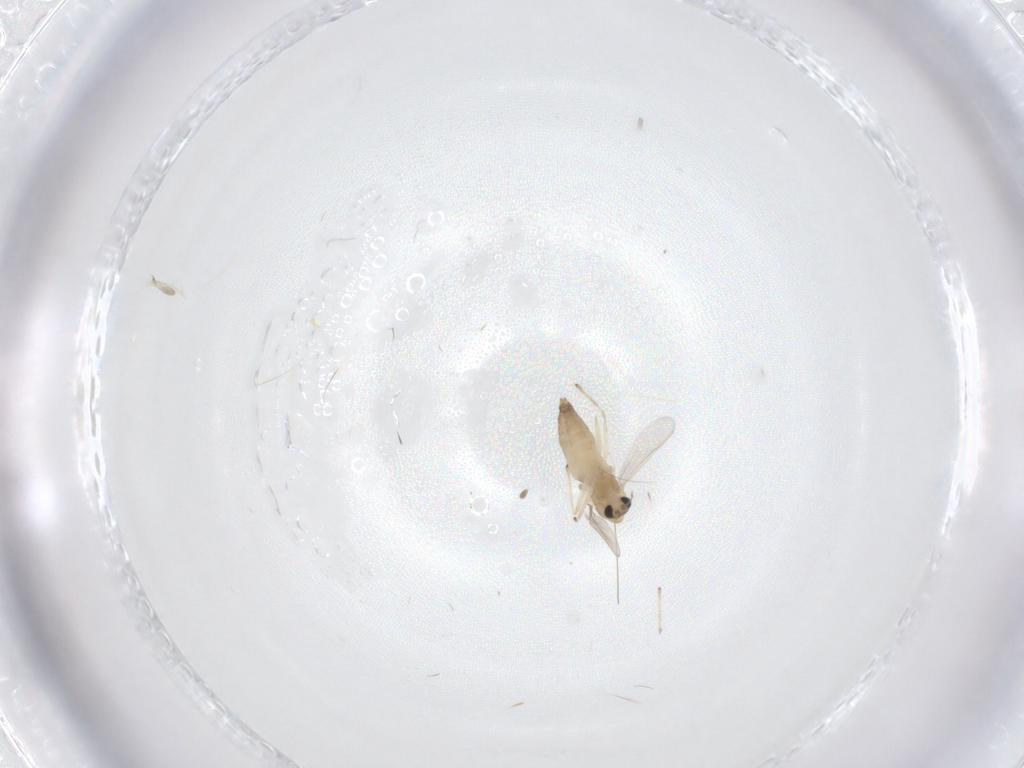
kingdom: Animalia
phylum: Arthropoda
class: Insecta
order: Diptera
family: Chironomidae
